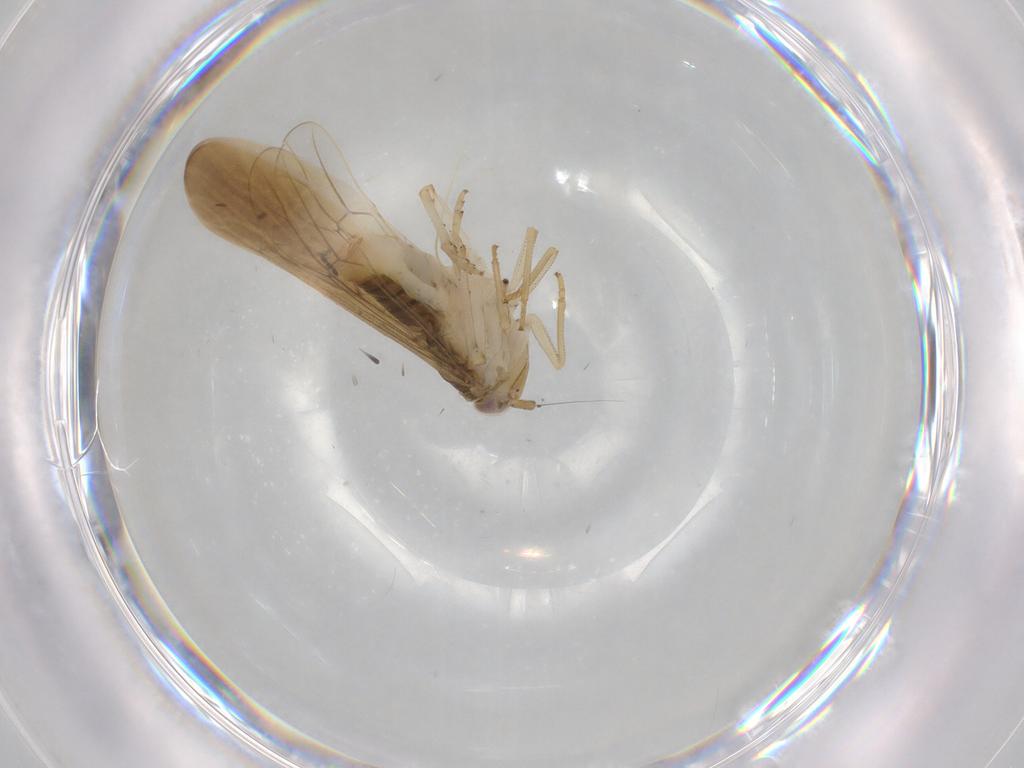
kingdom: Animalia
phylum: Arthropoda
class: Insecta
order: Hemiptera
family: Delphacidae
